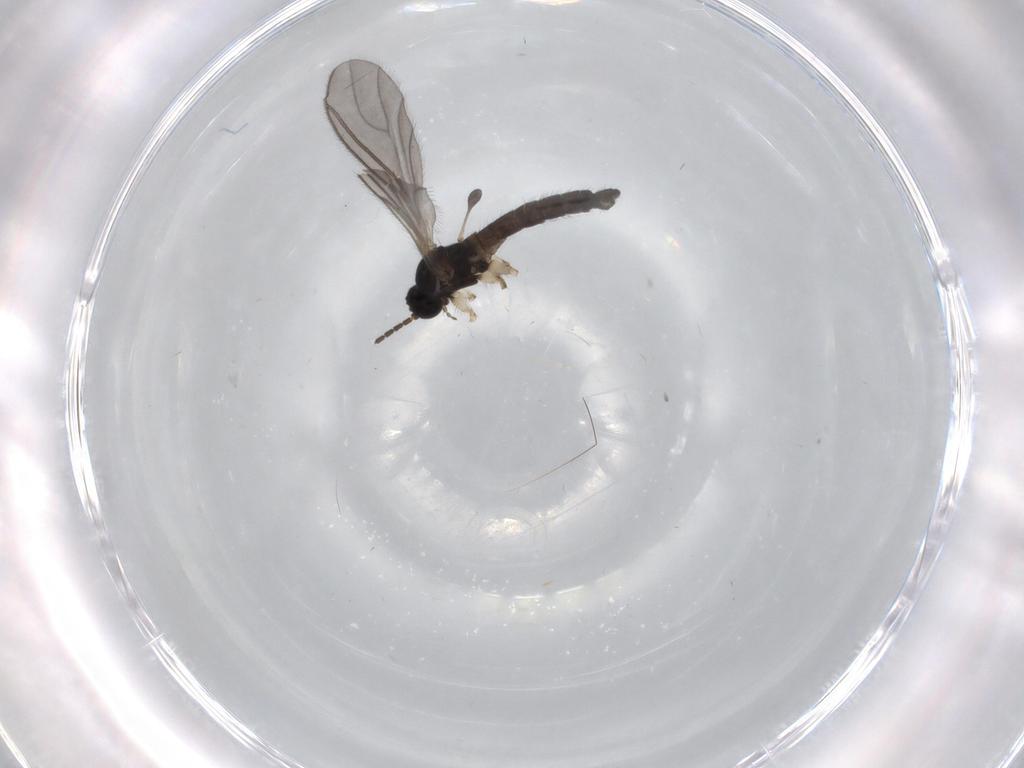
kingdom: Animalia
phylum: Arthropoda
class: Insecta
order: Diptera
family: Sciaridae
